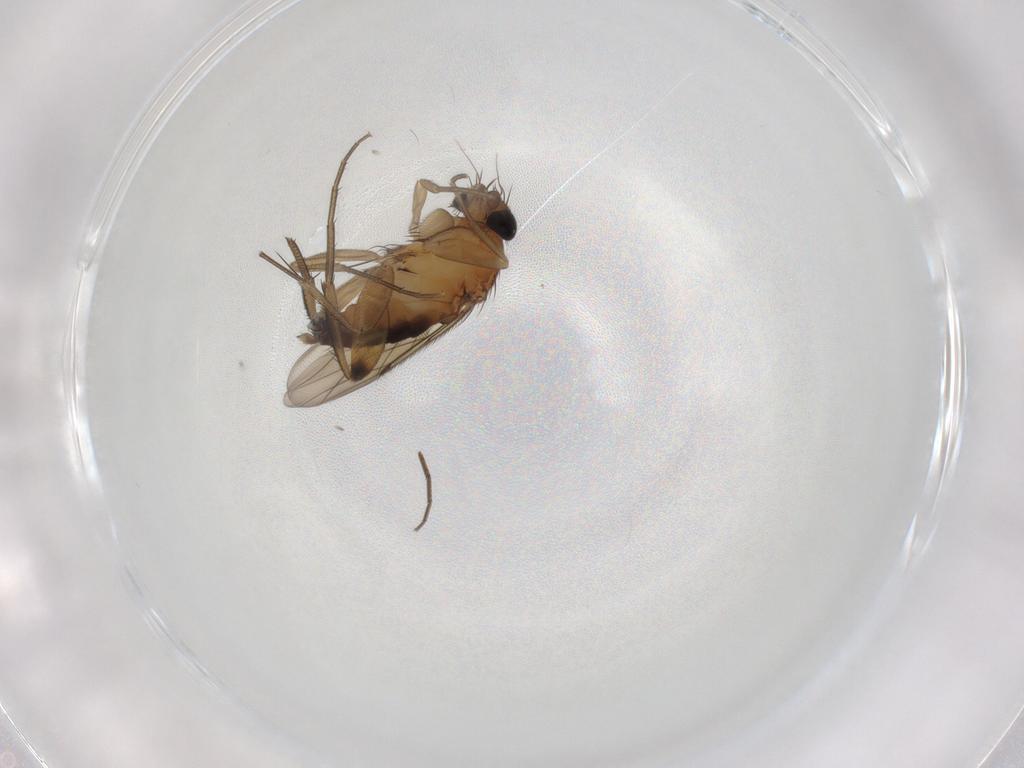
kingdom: Animalia
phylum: Arthropoda
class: Insecta
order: Diptera
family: Phoridae
